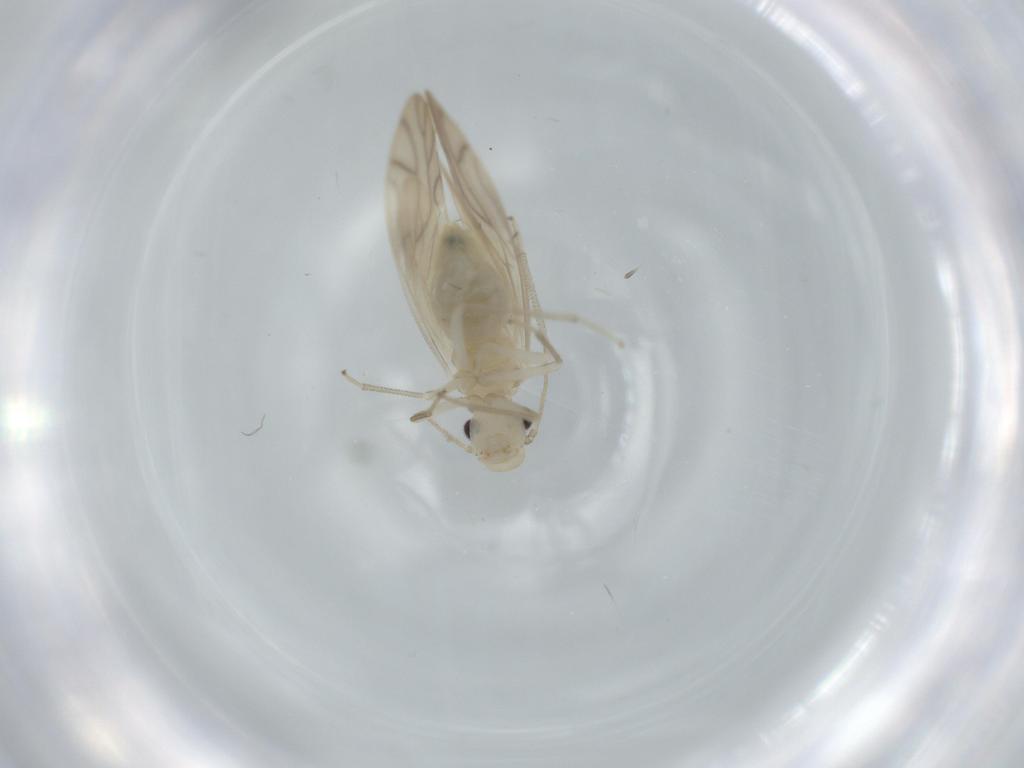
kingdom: Animalia
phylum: Arthropoda
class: Insecta
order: Psocodea
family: Caeciliusidae
